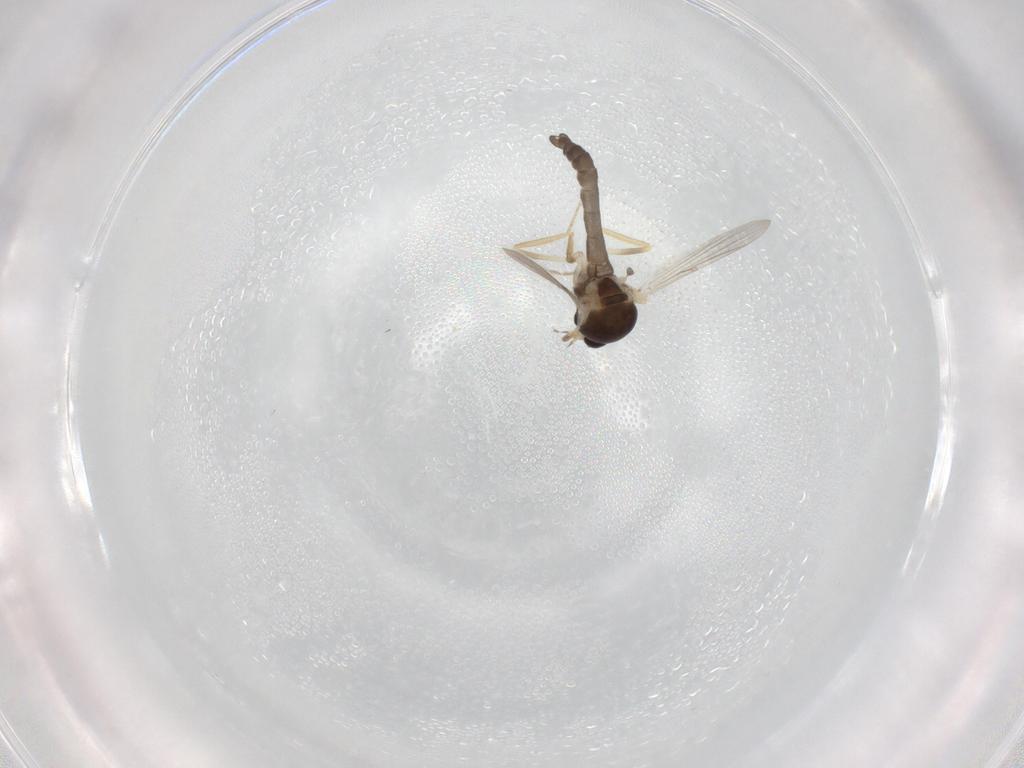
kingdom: Animalia
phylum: Arthropoda
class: Insecta
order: Diptera
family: Ceratopogonidae
